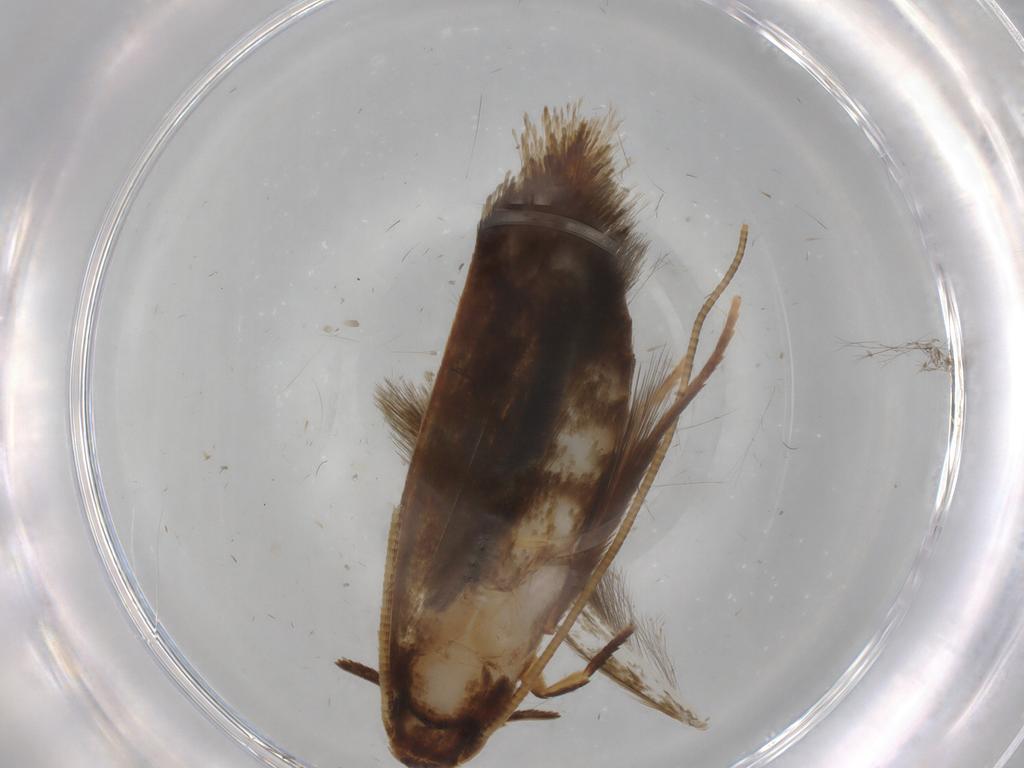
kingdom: Animalia
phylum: Arthropoda
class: Insecta
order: Lepidoptera
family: Tineidae
